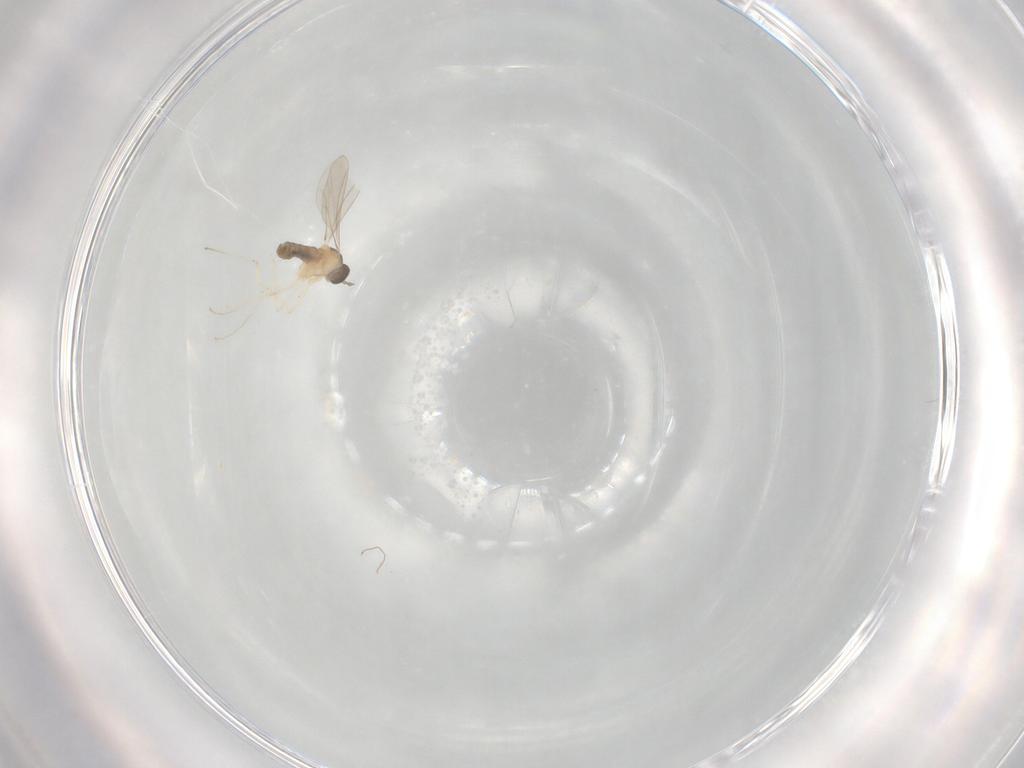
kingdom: Animalia
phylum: Arthropoda
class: Insecta
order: Diptera
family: Cecidomyiidae
